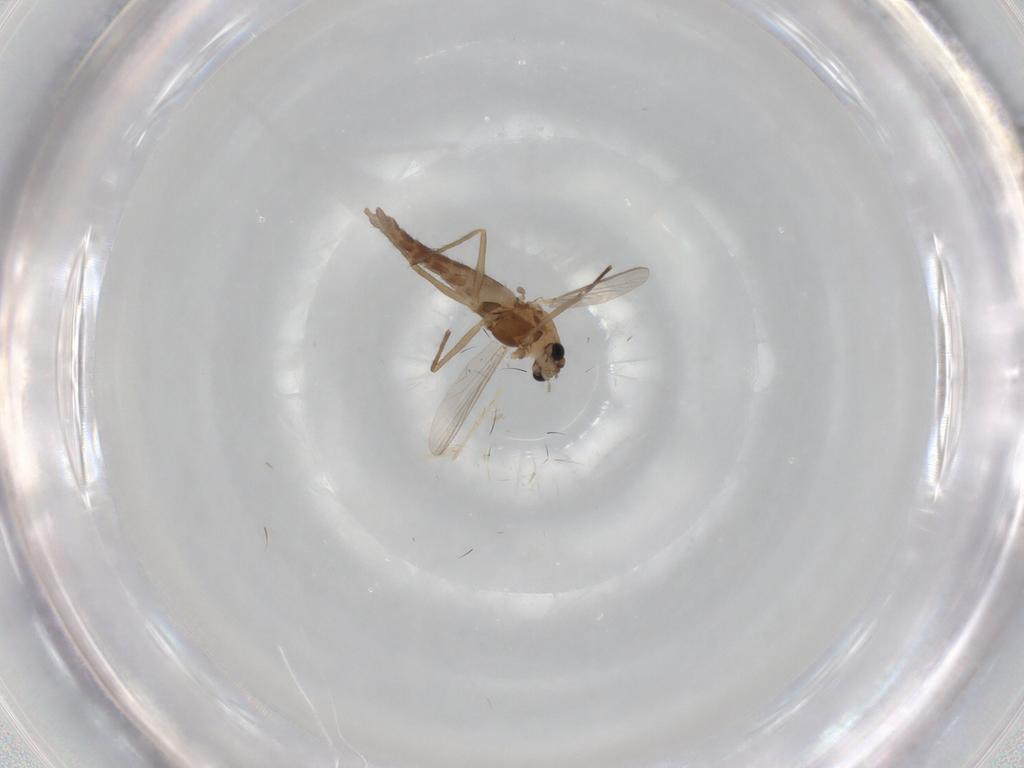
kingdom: Animalia
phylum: Arthropoda
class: Insecta
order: Diptera
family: Chironomidae
